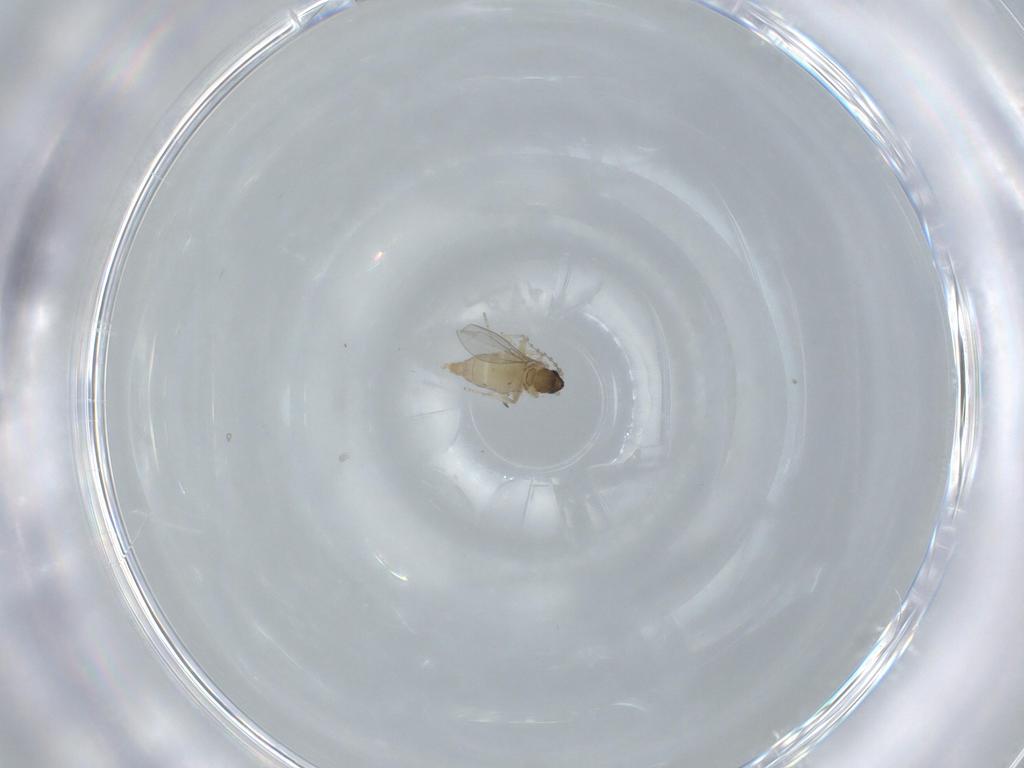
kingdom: Animalia
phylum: Arthropoda
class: Insecta
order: Diptera
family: Cecidomyiidae
